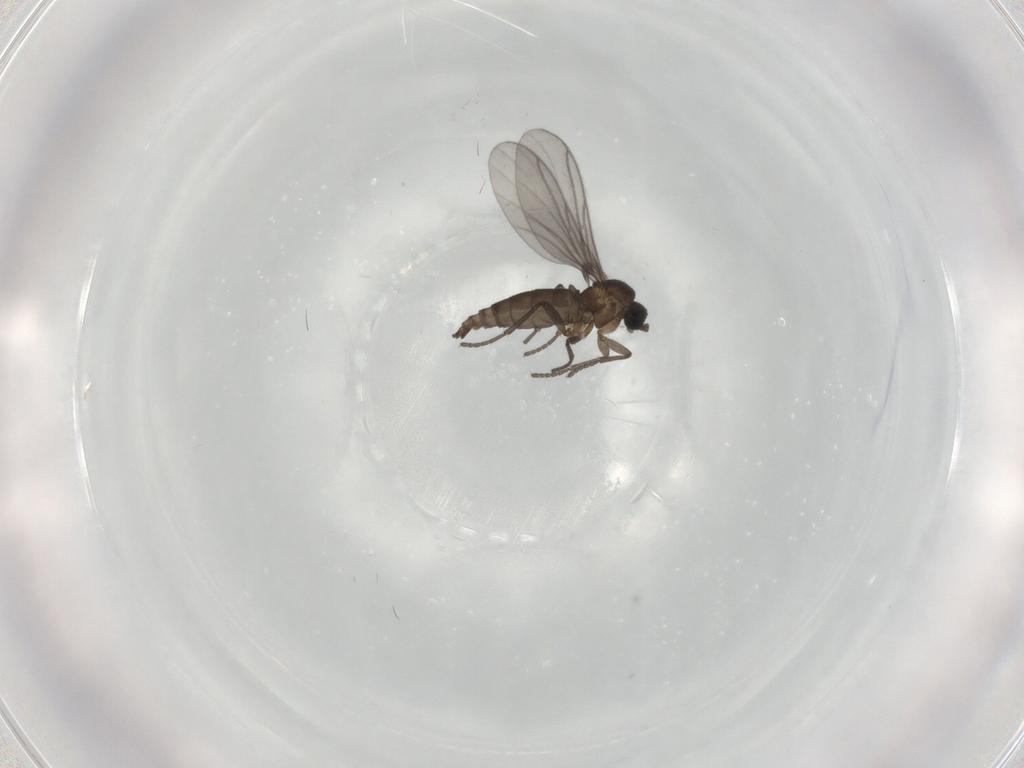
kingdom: Animalia
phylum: Arthropoda
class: Insecta
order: Diptera
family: Cecidomyiidae
